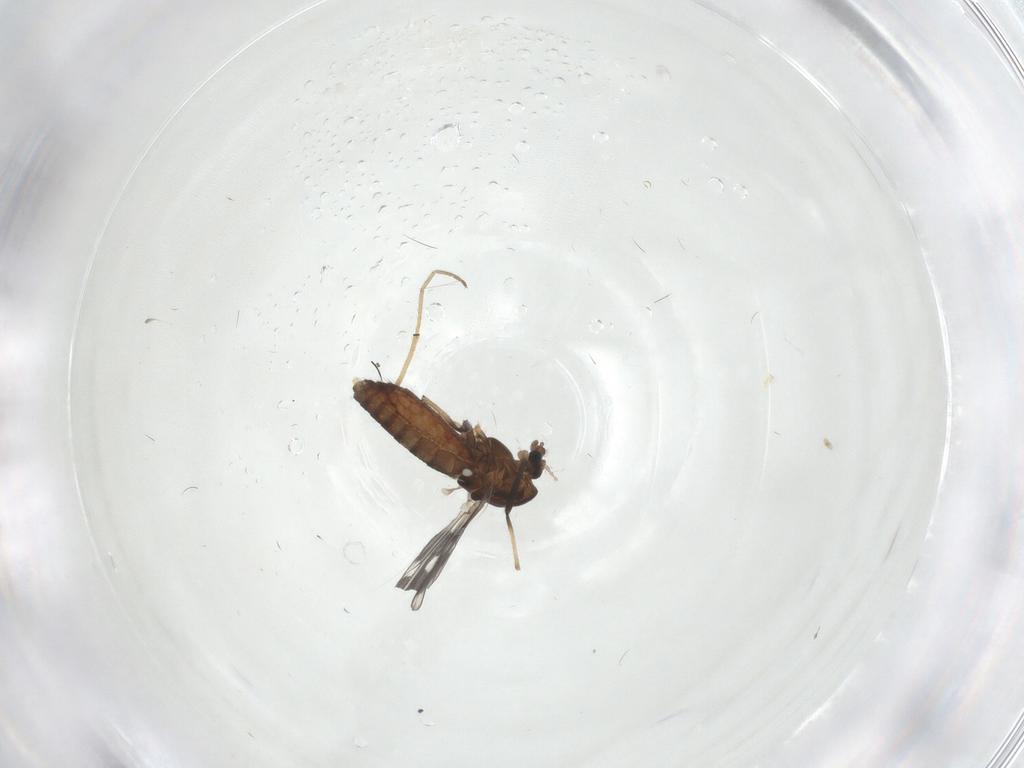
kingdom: Animalia
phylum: Arthropoda
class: Insecta
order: Diptera
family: Chironomidae
